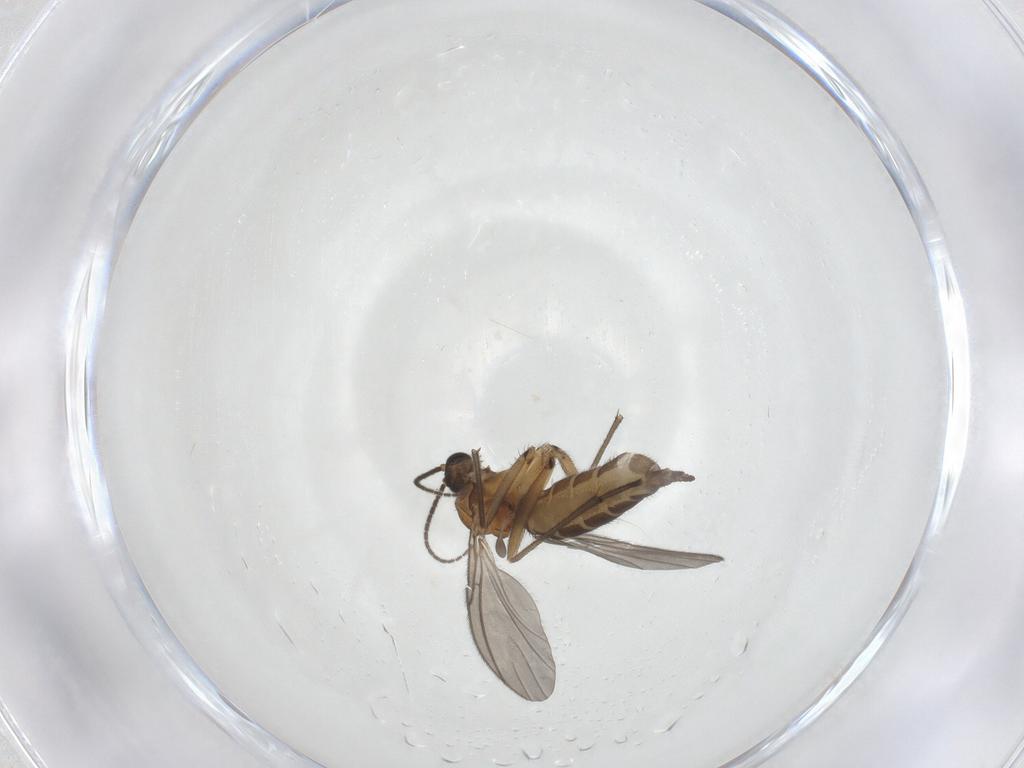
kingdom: Animalia
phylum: Arthropoda
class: Insecta
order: Diptera
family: Sciaridae
